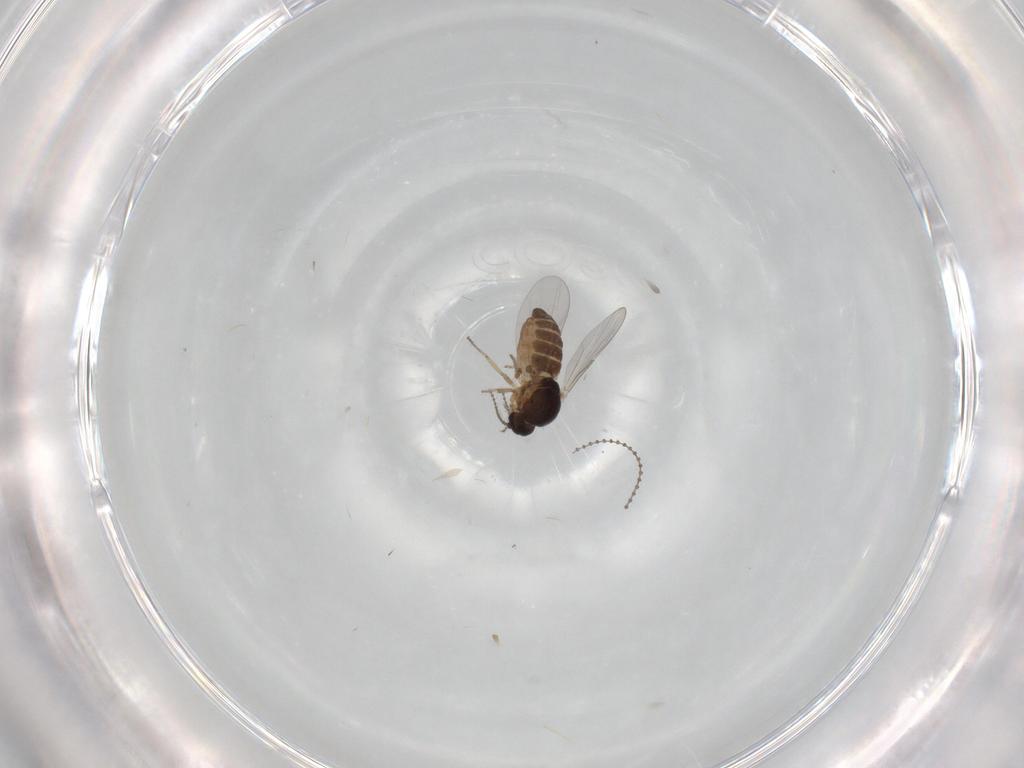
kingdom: Animalia
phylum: Arthropoda
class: Insecta
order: Diptera
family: Ceratopogonidae
